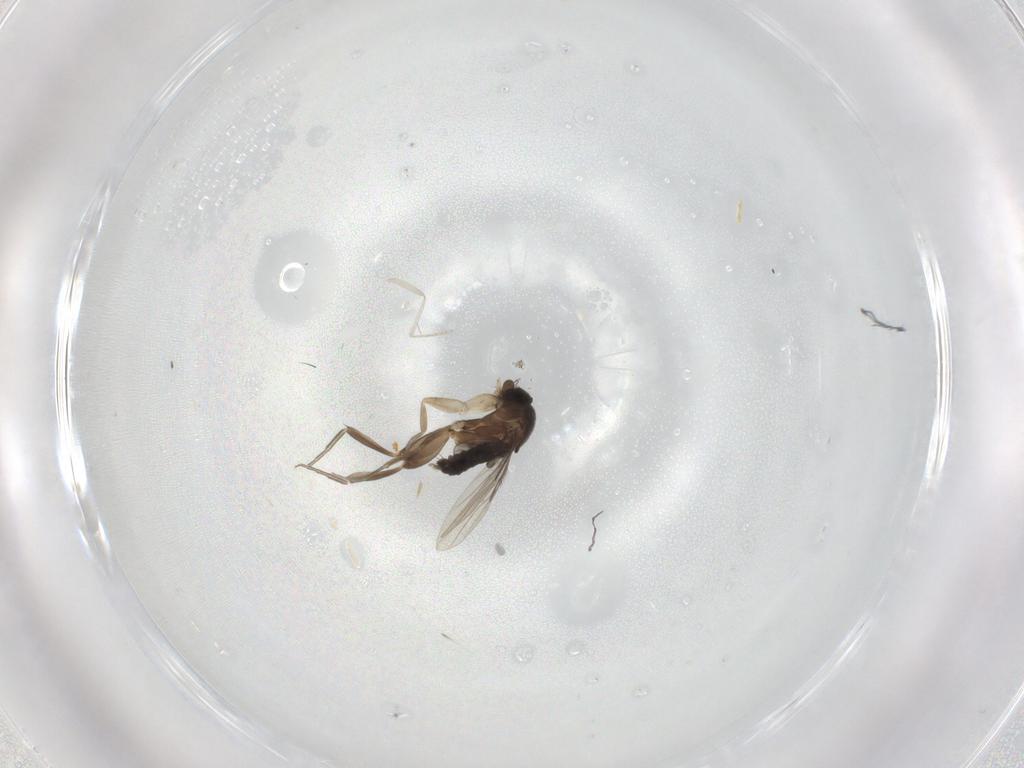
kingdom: Animalia
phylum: Arthropoda
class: Insecta
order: Diptera
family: Cecidomyiidae
